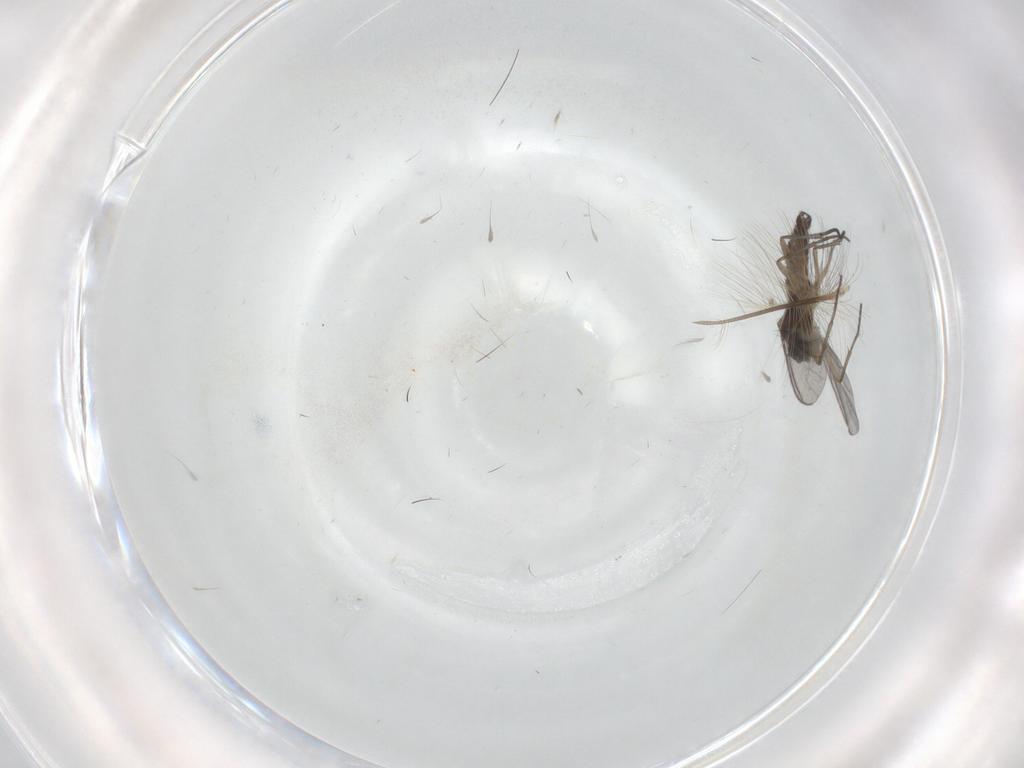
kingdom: Animalia
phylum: Arthropoda
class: Insecta
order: Diptera
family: Sciaridae
